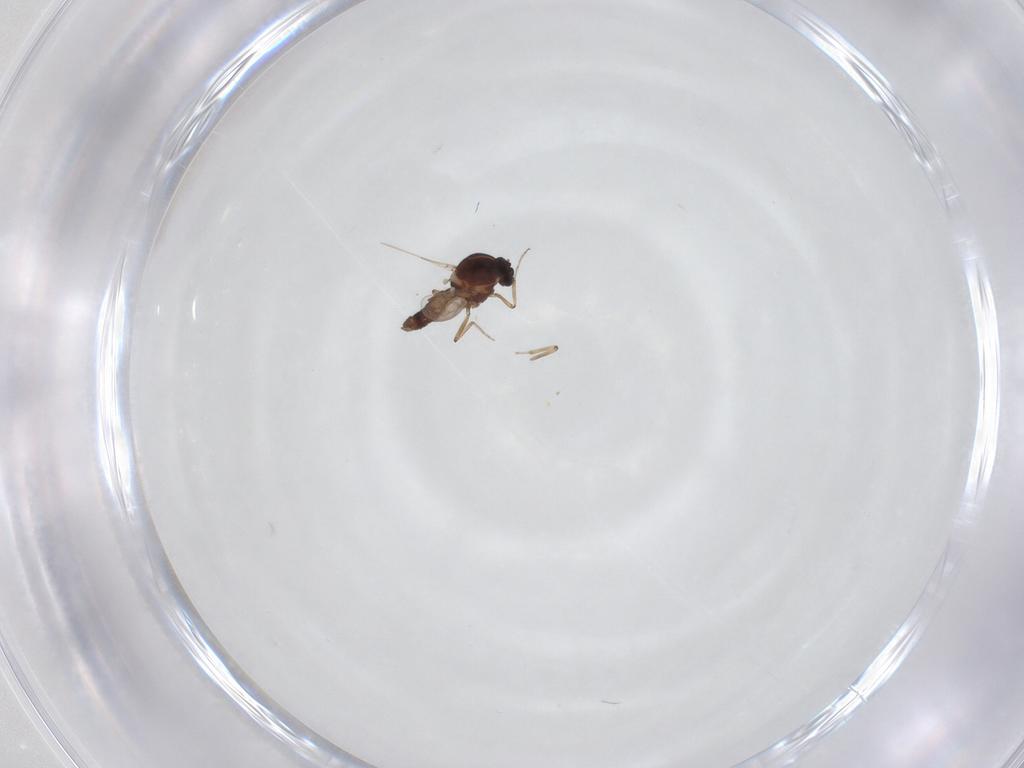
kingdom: Animalia
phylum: Arthropoda
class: Insecta
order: Diptera
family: Ceratopogonidae
